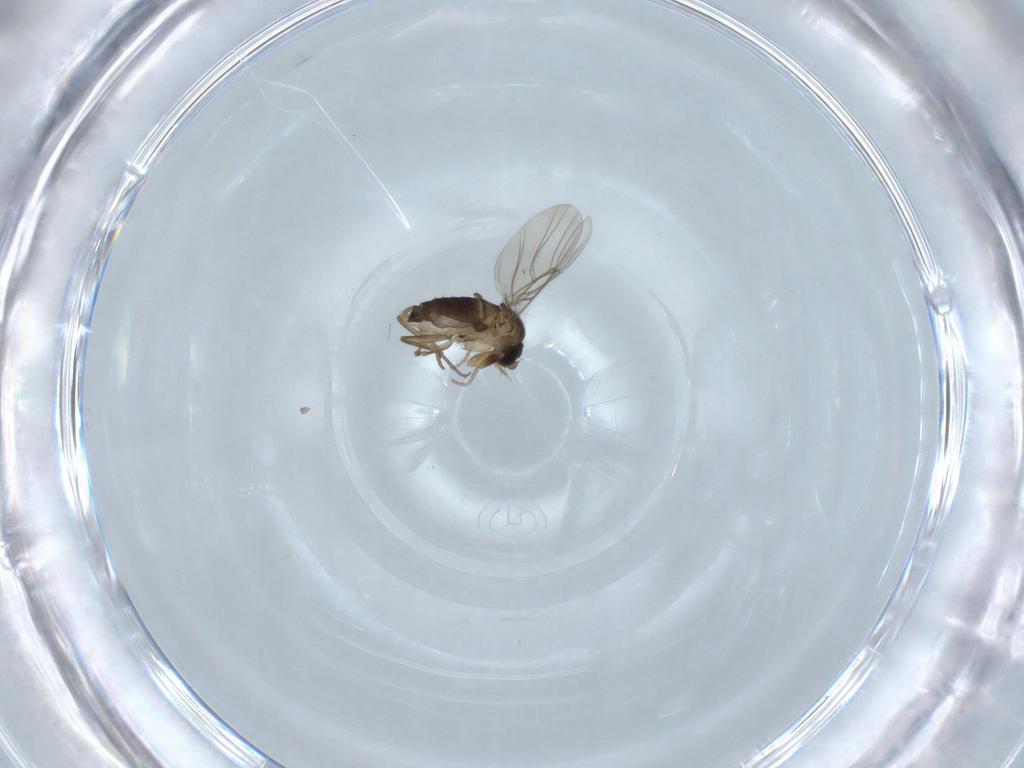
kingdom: Animalia
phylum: Arthropoda
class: Insecta
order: Diptera
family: Phoridae
